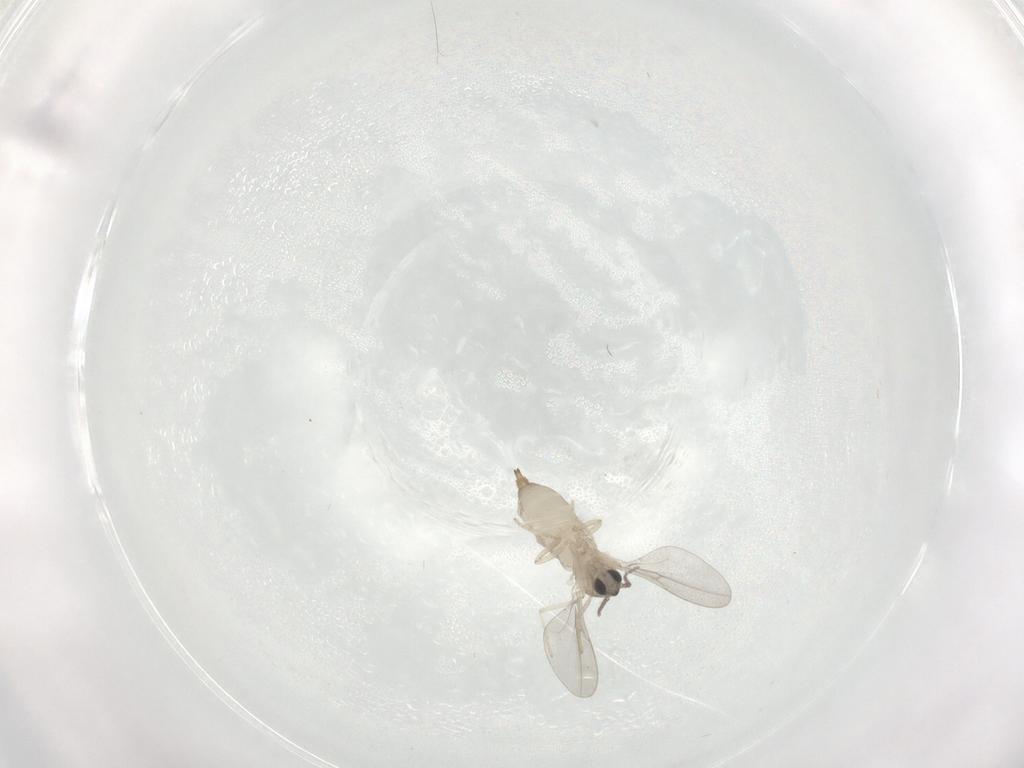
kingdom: Animalia
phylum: Arthropoda
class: Insecta
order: Diptera
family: Cecidomyiidae
